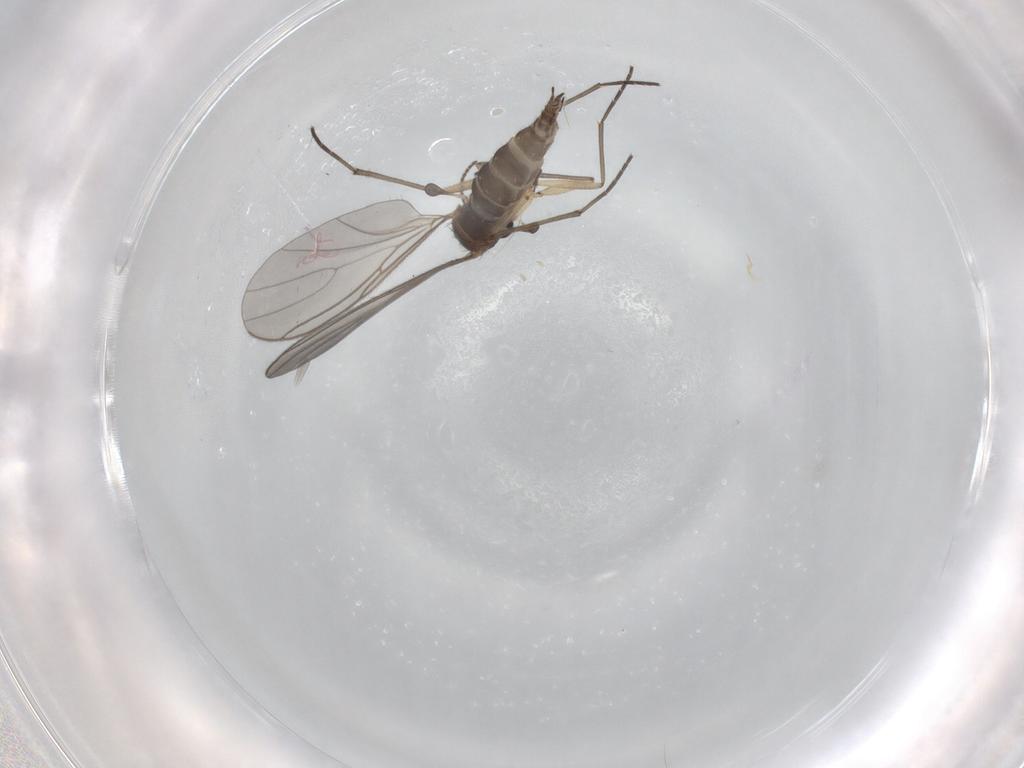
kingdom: Animalia
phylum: Arthropoda
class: Insecta
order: Diptera
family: Sciaridae
